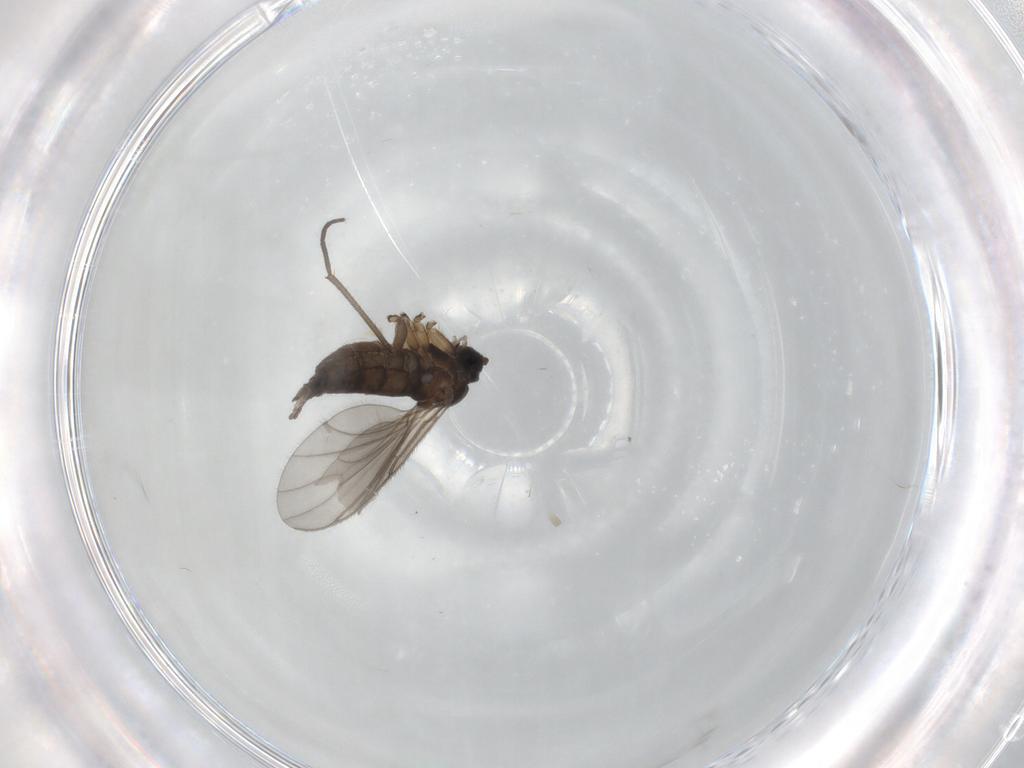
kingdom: Animalia
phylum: Arthropoda
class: Insecta
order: Diptera
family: Sciaridae
